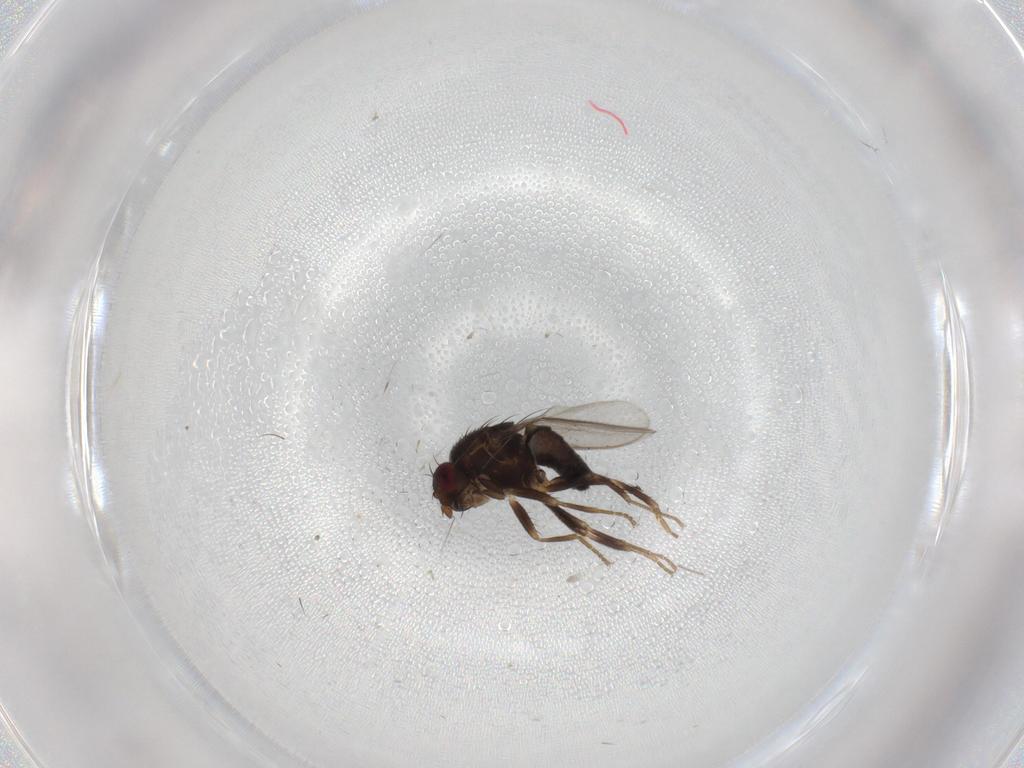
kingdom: Animalia
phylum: Arthropoda
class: Insecta
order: Diptera
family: Sphaeroceridae
